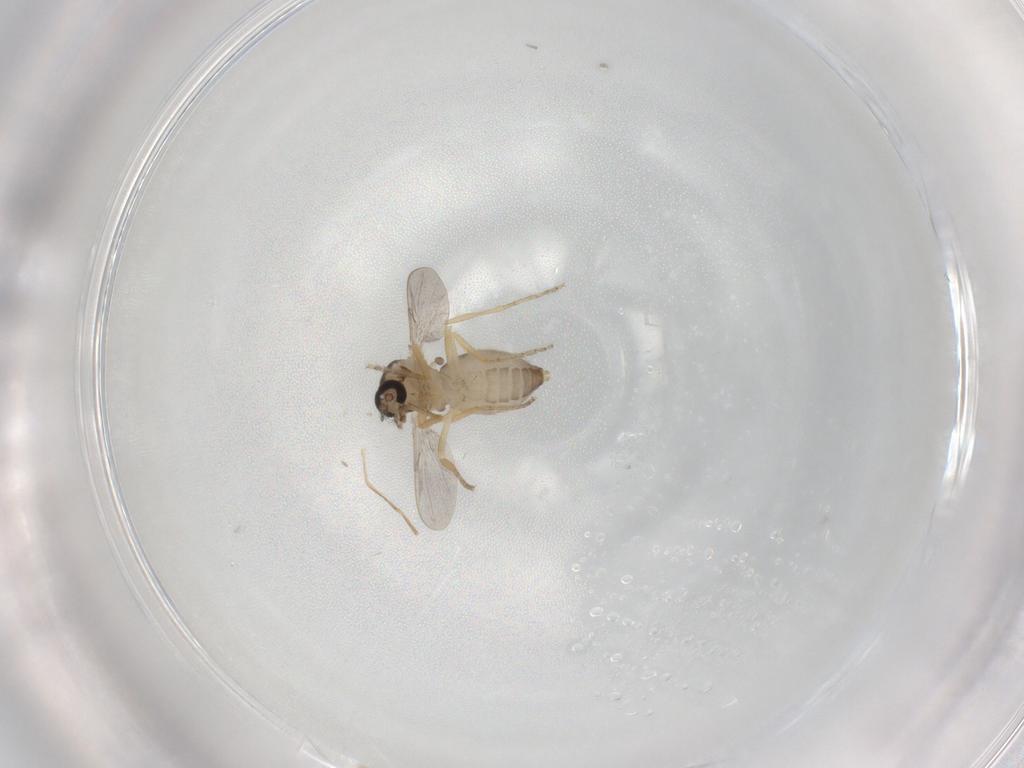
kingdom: Animalia
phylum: Arthropoda
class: Insecta
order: Diptera
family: Ceratopogonidae
